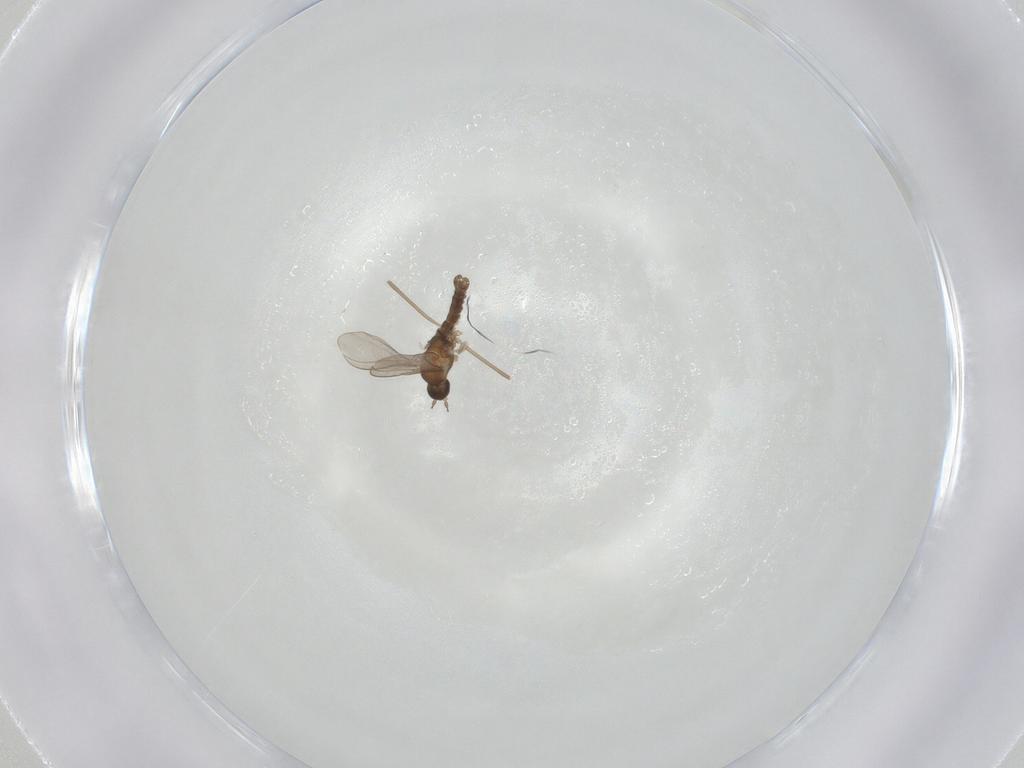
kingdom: Animalia
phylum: Arthropoda
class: Insecta
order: Diptera
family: Cecidomyiidae
